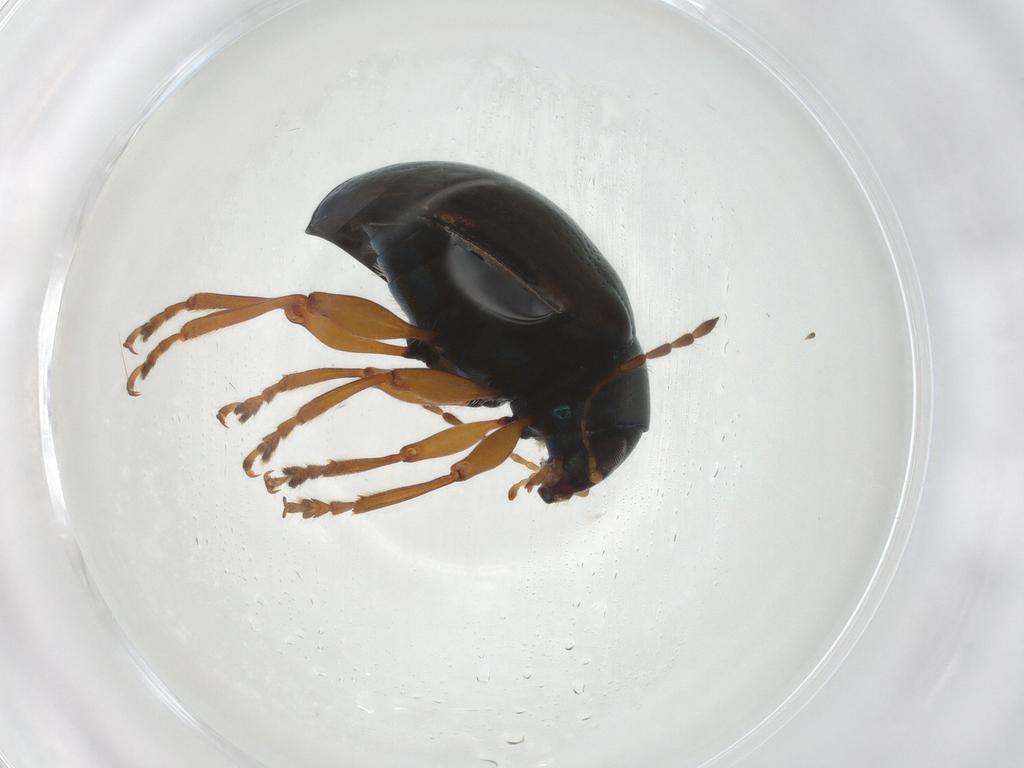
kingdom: Animalia
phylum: Arthropoda
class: Insecta
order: Coleoptera
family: Chrysomelidae
